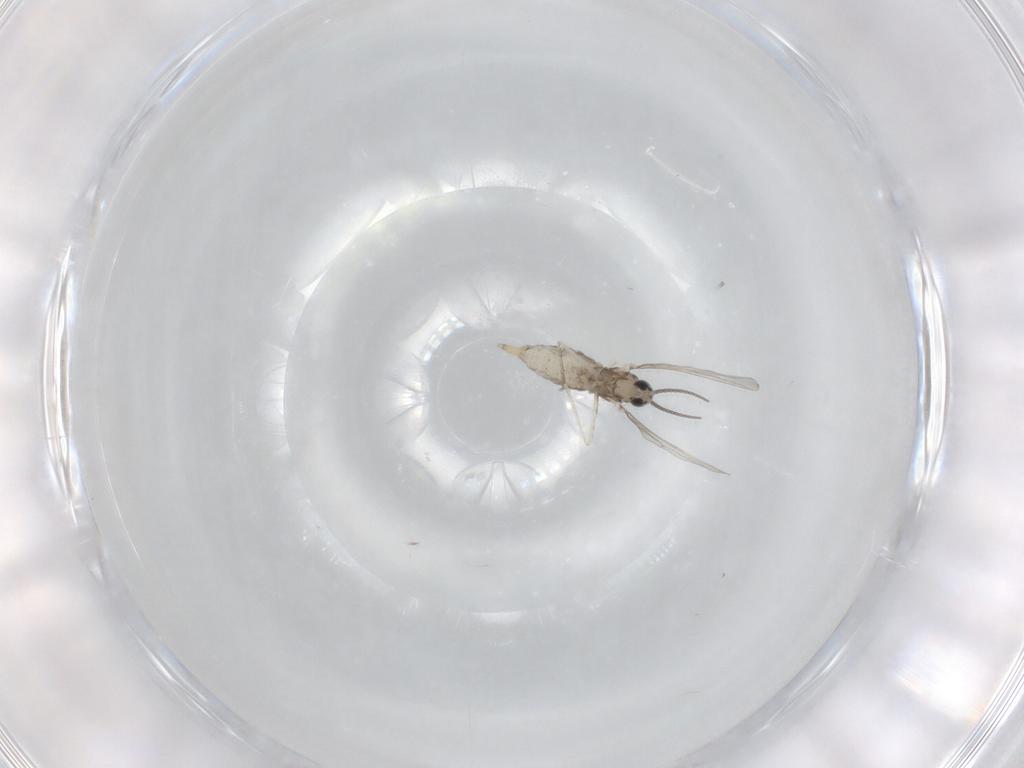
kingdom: Animalia
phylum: Arthropoda
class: Insecta
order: Diptera
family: Cecidomyiidae
